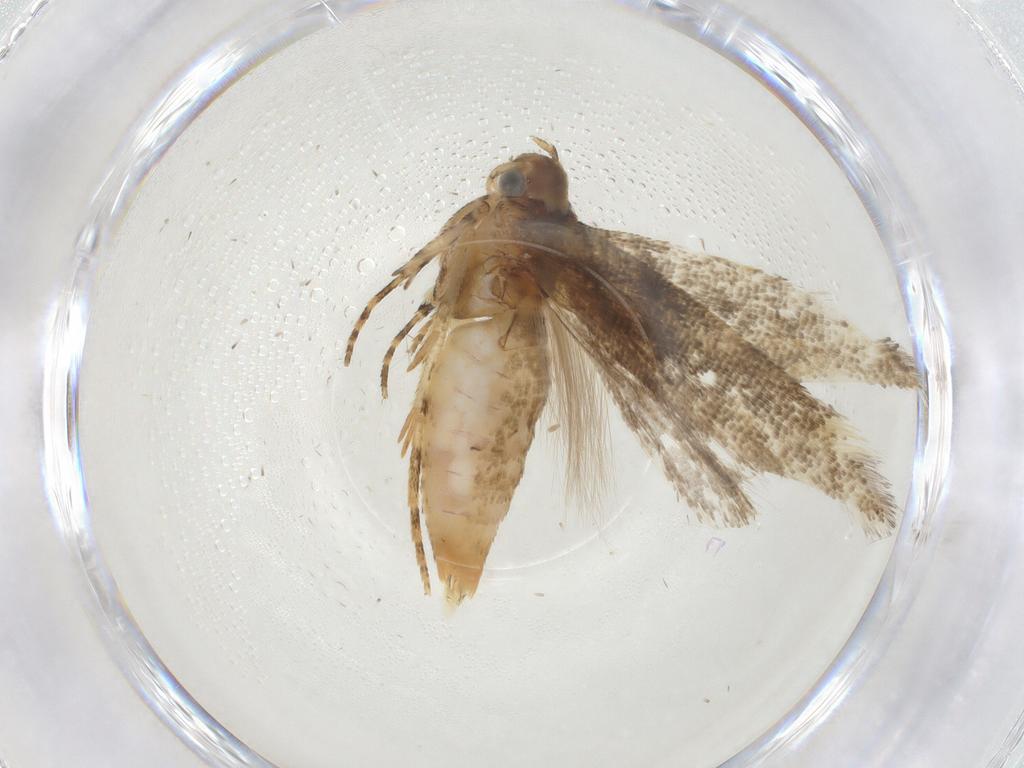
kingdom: Animalia
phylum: Arthropoda
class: Insecta
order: Lepidoptera
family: Gelechiidae
